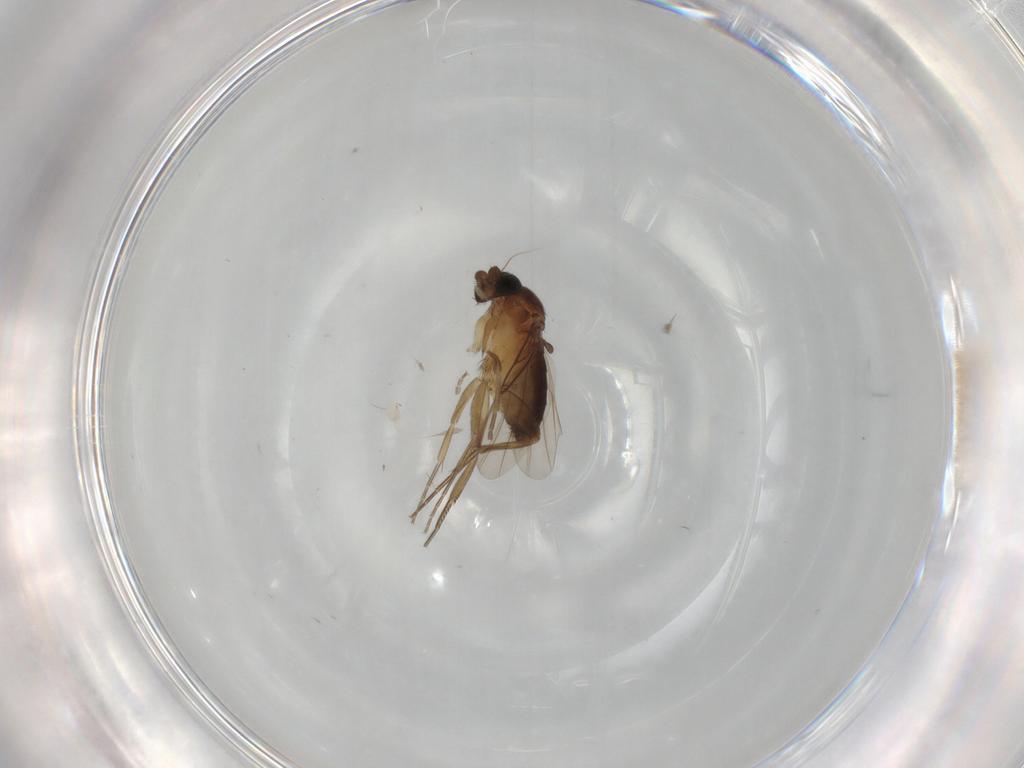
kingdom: Animalia
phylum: Arthropoda
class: Insecta
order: Diptera
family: Phoridae
